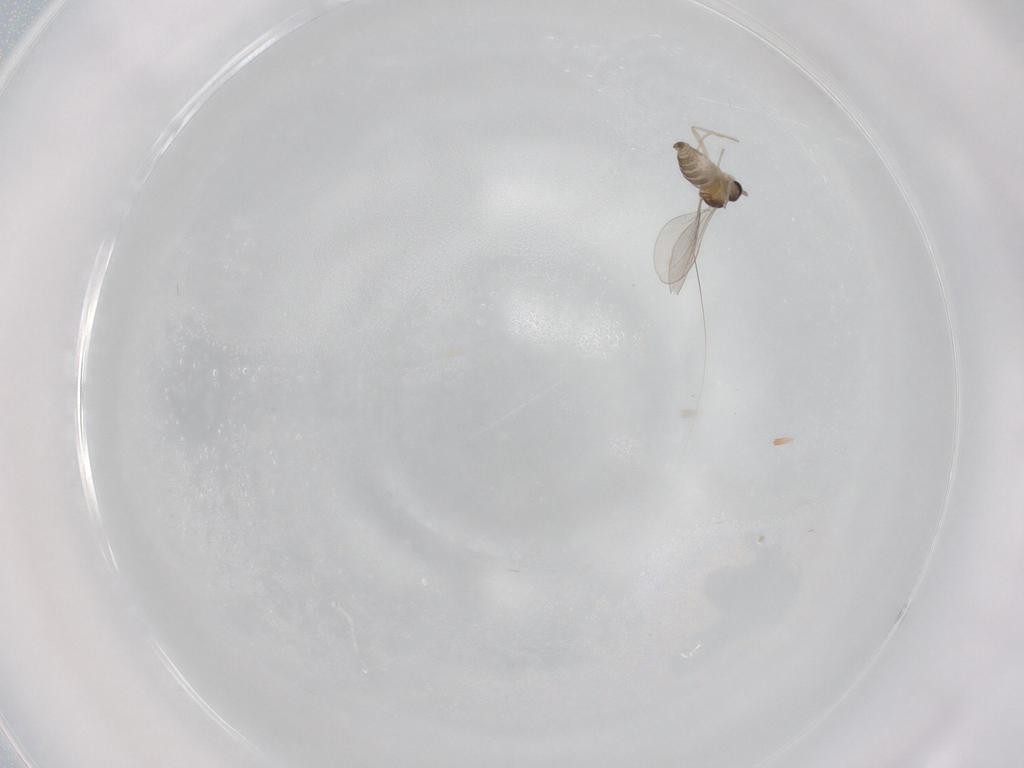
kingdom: Animalia
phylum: Arthropoda
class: Insecta
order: Diptera
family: Cecidomyiidae
